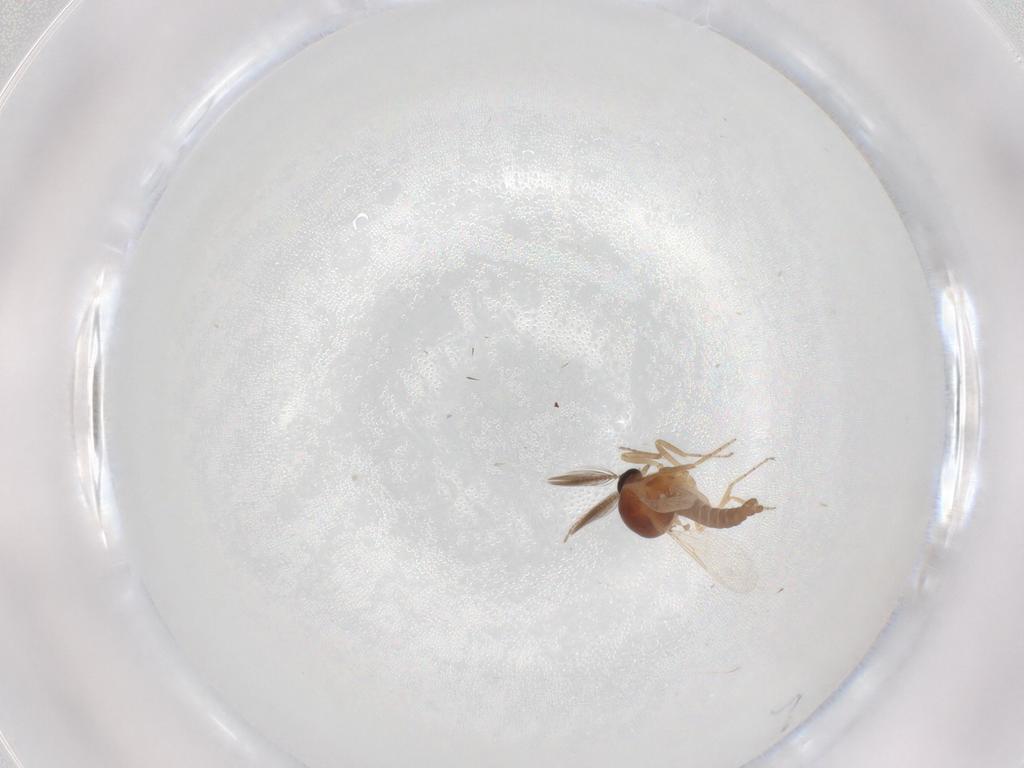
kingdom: Animalia
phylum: Arthropoda
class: Insecta
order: Diptera
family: Ceratopogonidae
